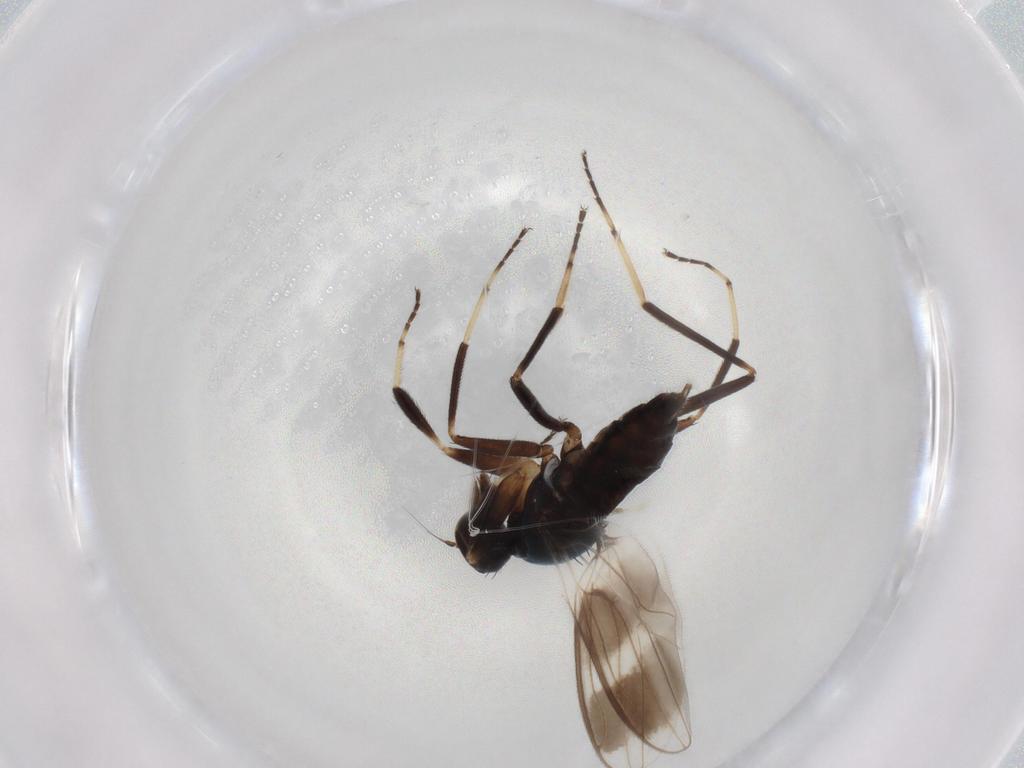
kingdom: Animalia
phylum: Arthropoda
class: Insecta
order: Diptera
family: Hybotidae
